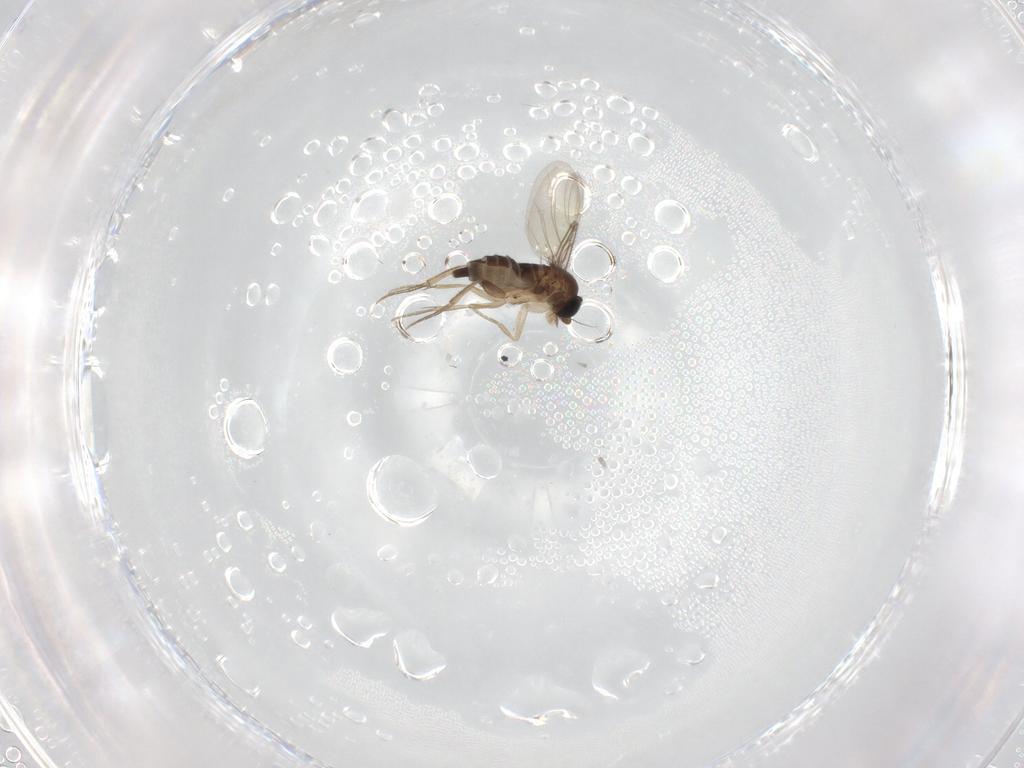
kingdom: Animalia
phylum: Arthropoda
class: Insecta
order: Diptera
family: Phoridae
